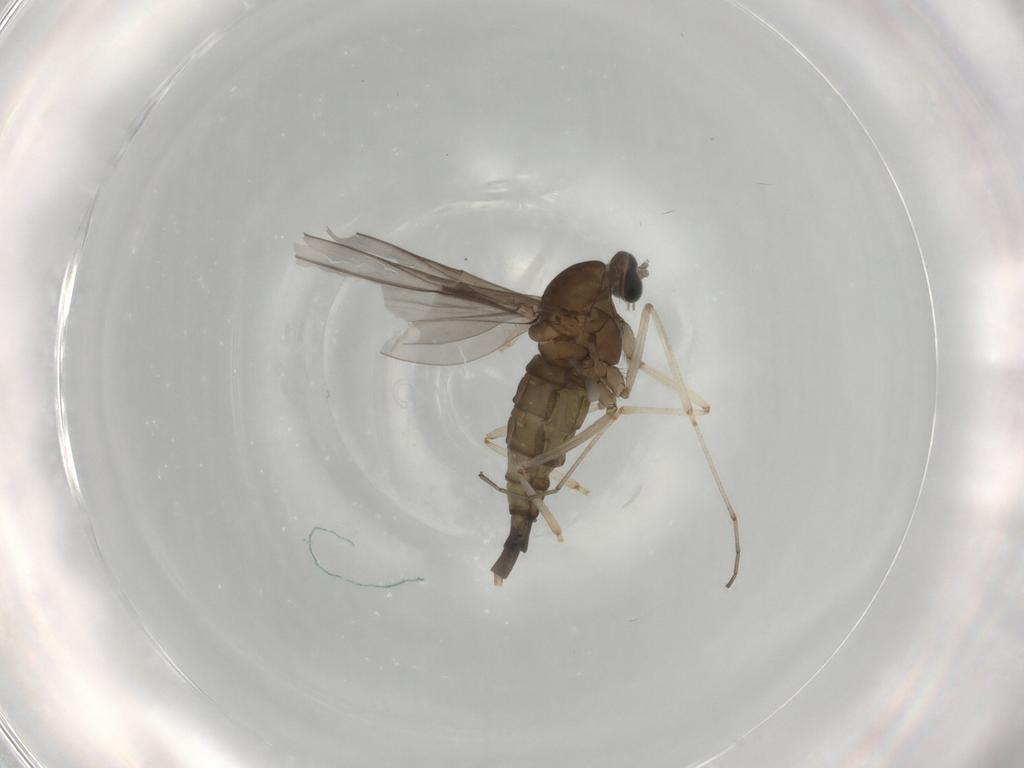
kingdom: Animalia
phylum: Arthropoda
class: Insecta
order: Diptera
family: Cecidomyiidae
